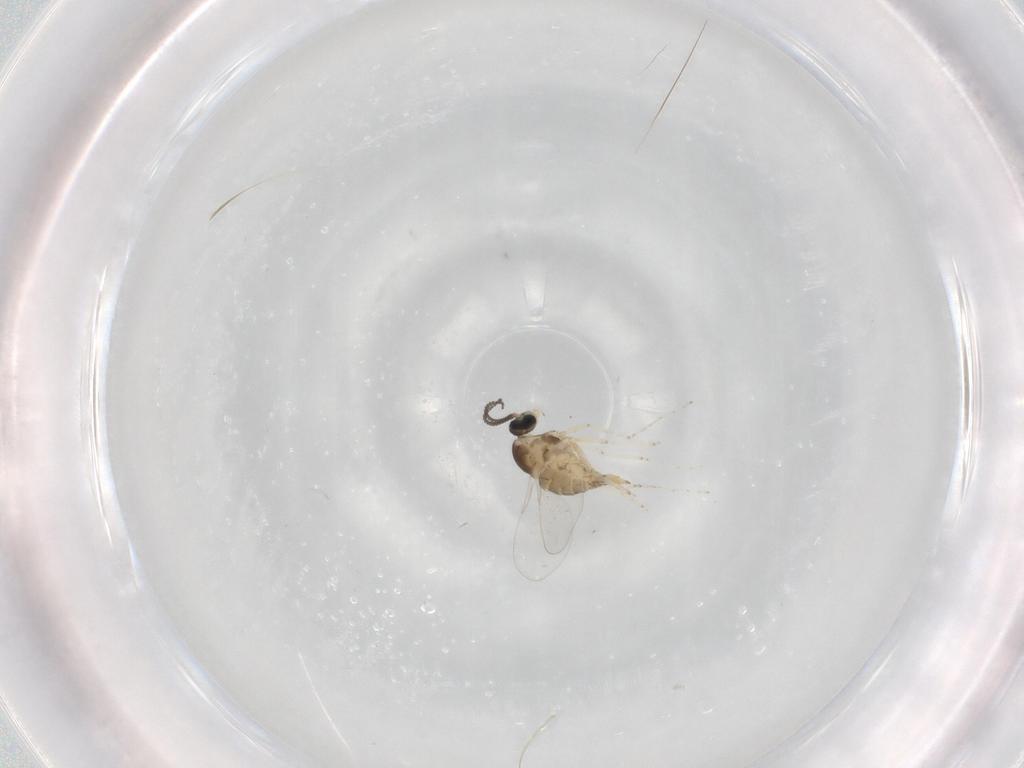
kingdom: Animalia
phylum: Arthropoda
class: Insecta
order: Diptera
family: Cecidomyiidae
